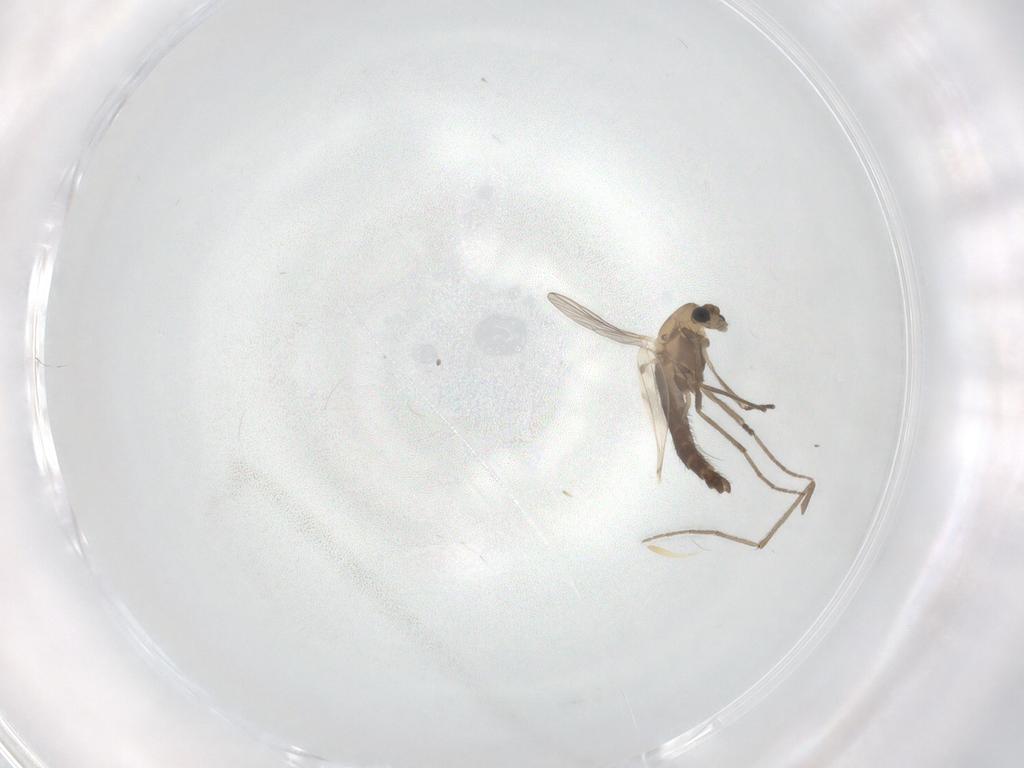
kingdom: Animalia
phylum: Arthropoda
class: Insecta
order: Diptera
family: Chironomidae
